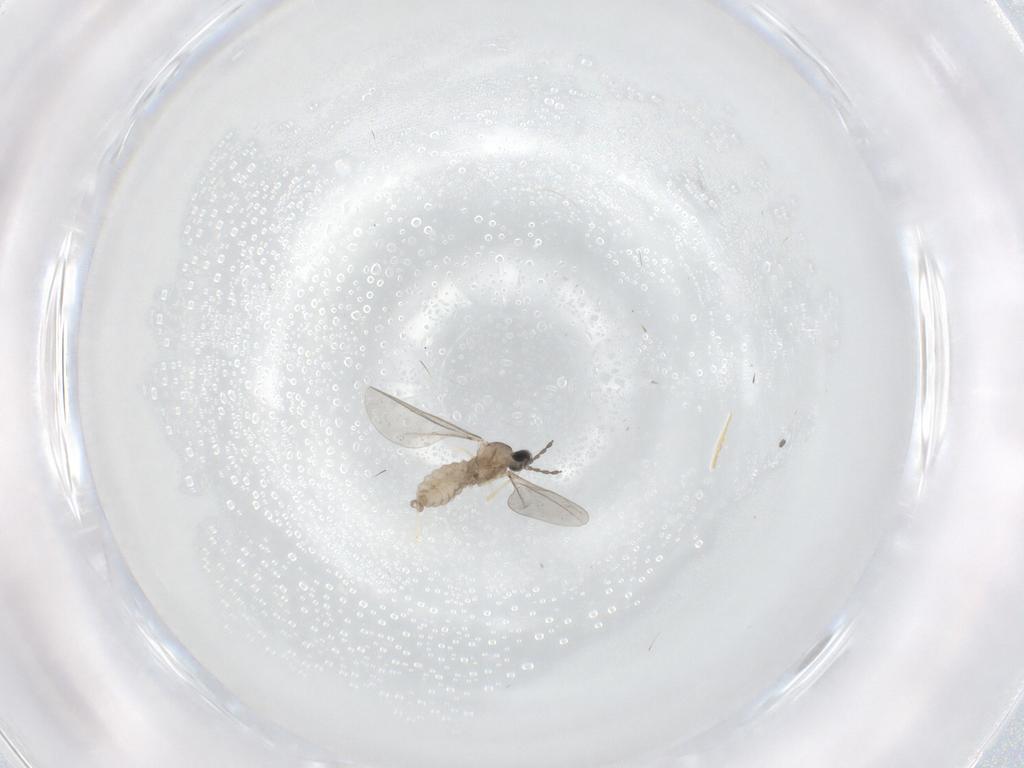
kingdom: Animalia
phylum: Arthropoda
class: Insecta
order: Diptera
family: Cecidomyiidae
